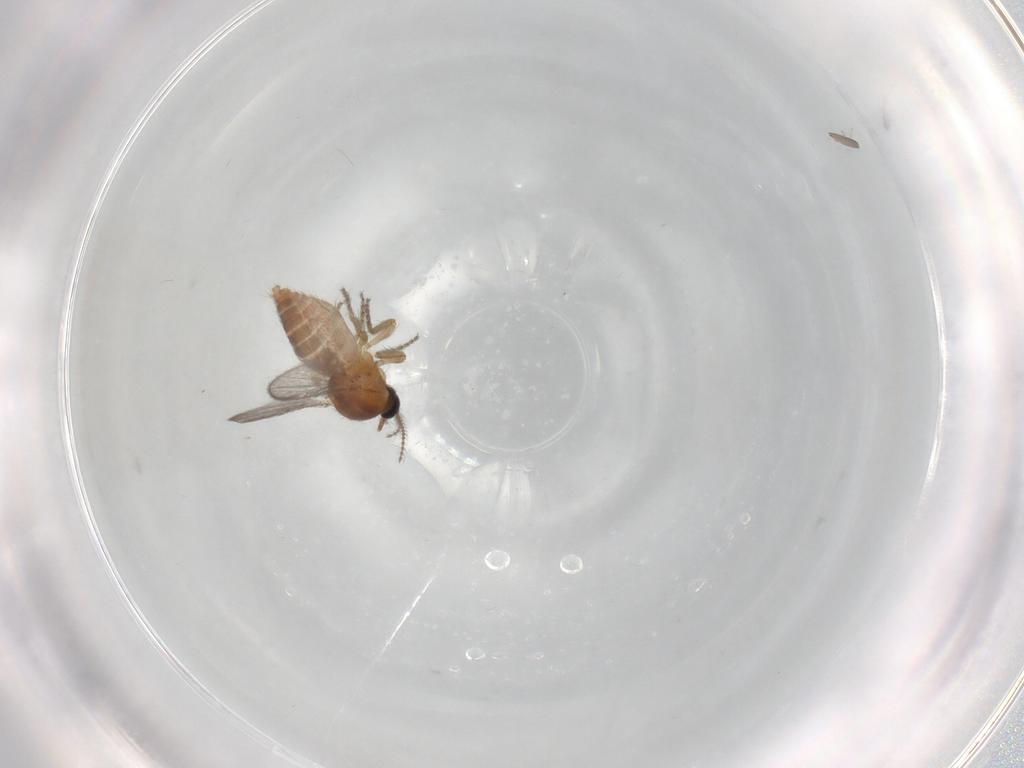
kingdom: Animalia
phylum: Arthropoda
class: Insecta
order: Diptera
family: Ceratopogonidae
